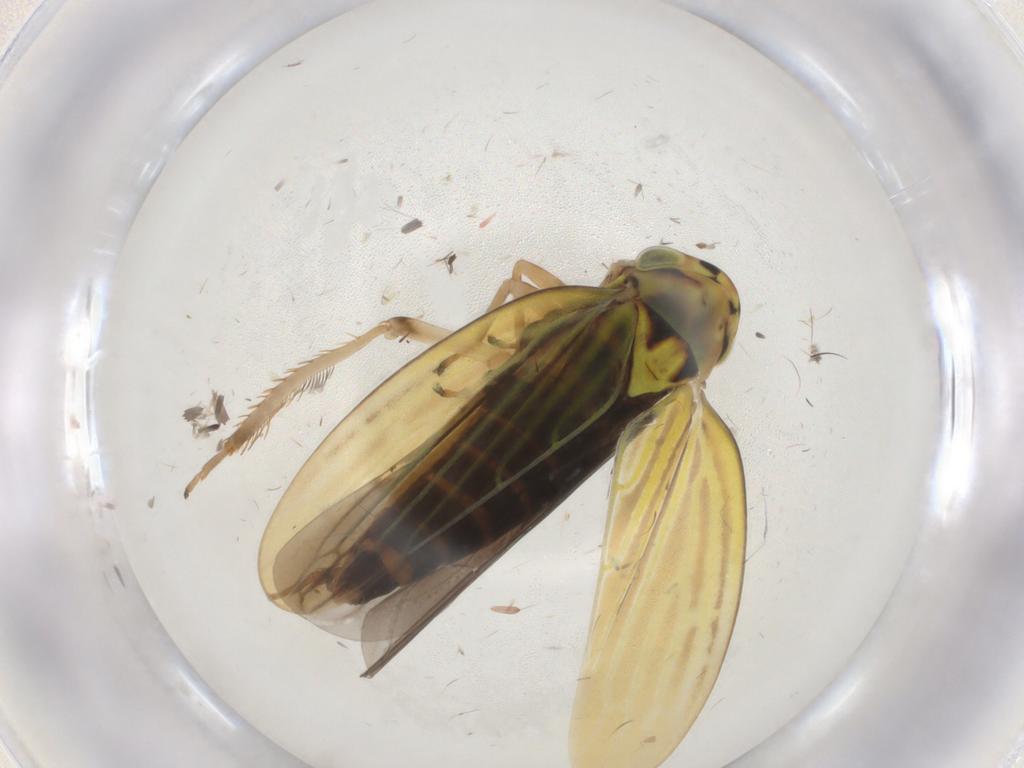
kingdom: Animalia
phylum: Arthropoda
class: Insecta
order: Hemiptera
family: Cicadellidae
